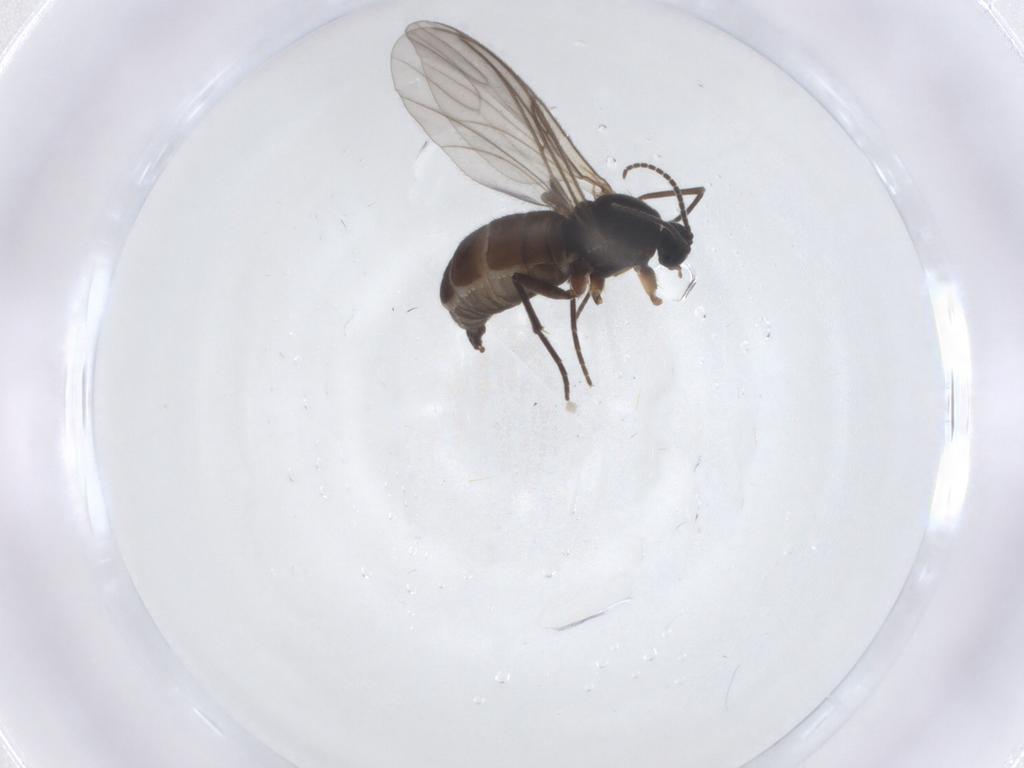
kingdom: Animalia
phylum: Arthropoda
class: Insecta
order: Diptera
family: Sciaridae
